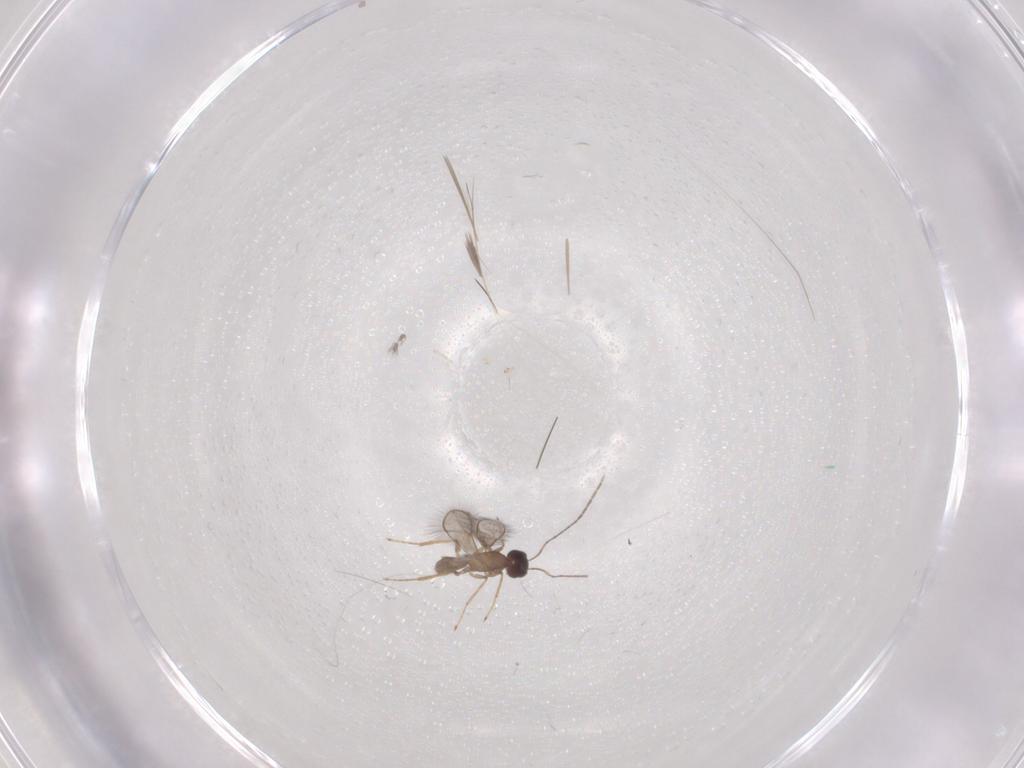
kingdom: Animalia
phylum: Arthropoda
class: Insecta
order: Hymenoptera
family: Mymaridae
